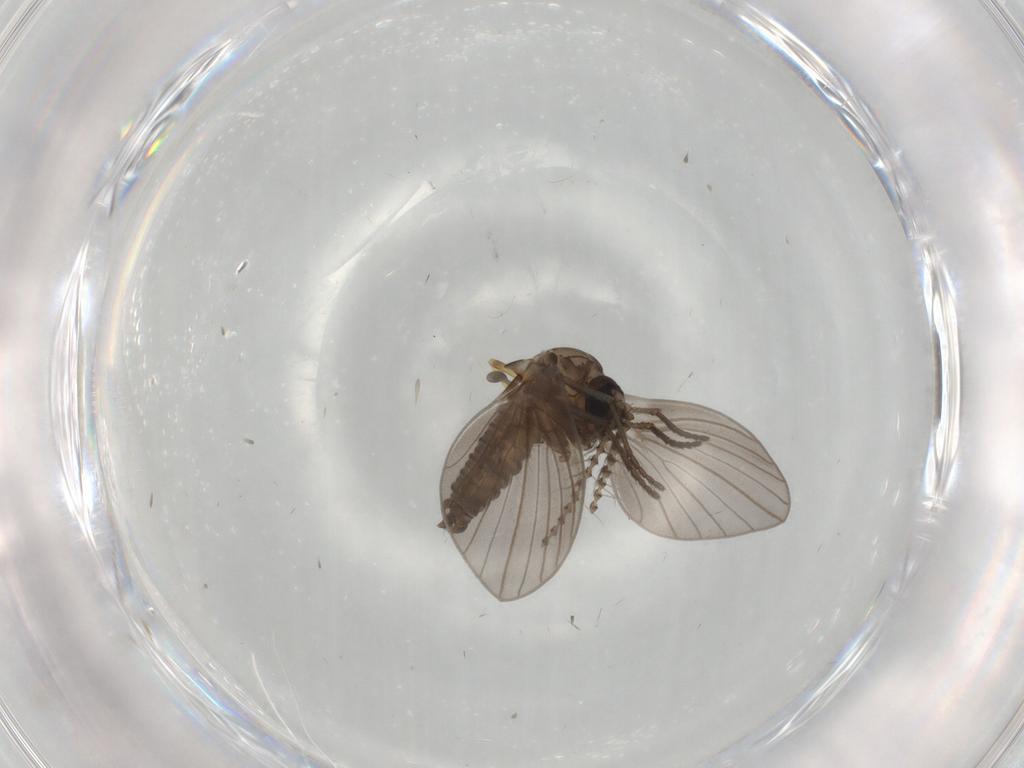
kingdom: Animalia
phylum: Arthropoda
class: Insecta
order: Diptera
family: Psychodidae
